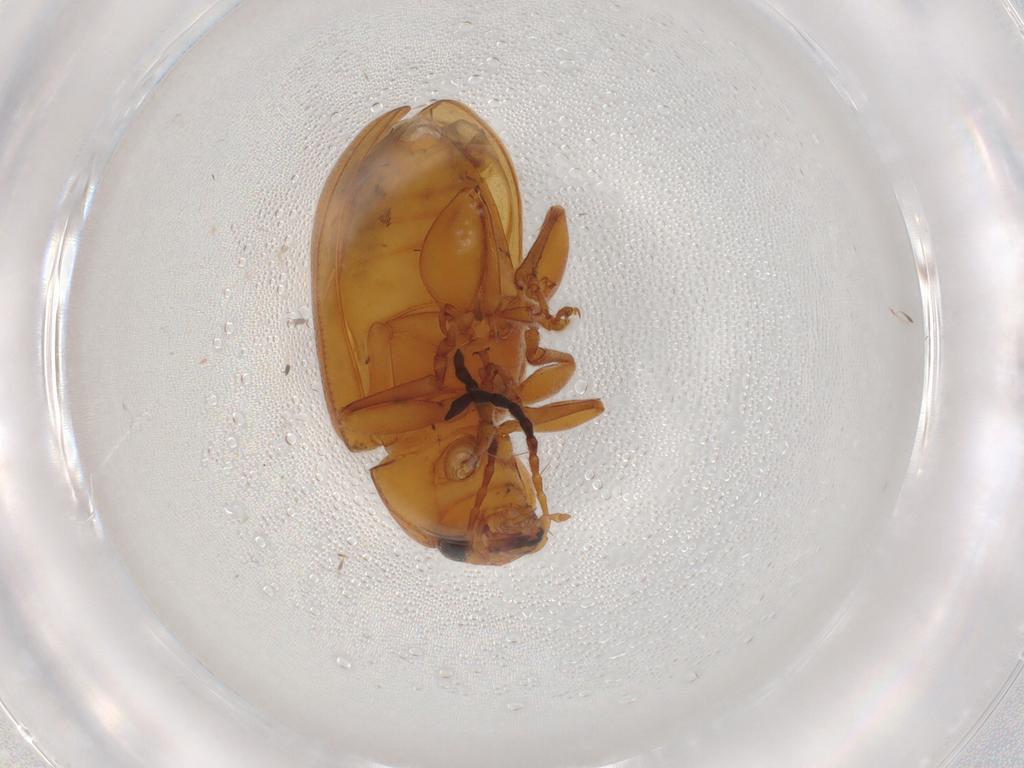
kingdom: Animalia
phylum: Arthropoda
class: Insecta
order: Coleoptera
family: Chrysomelidae
